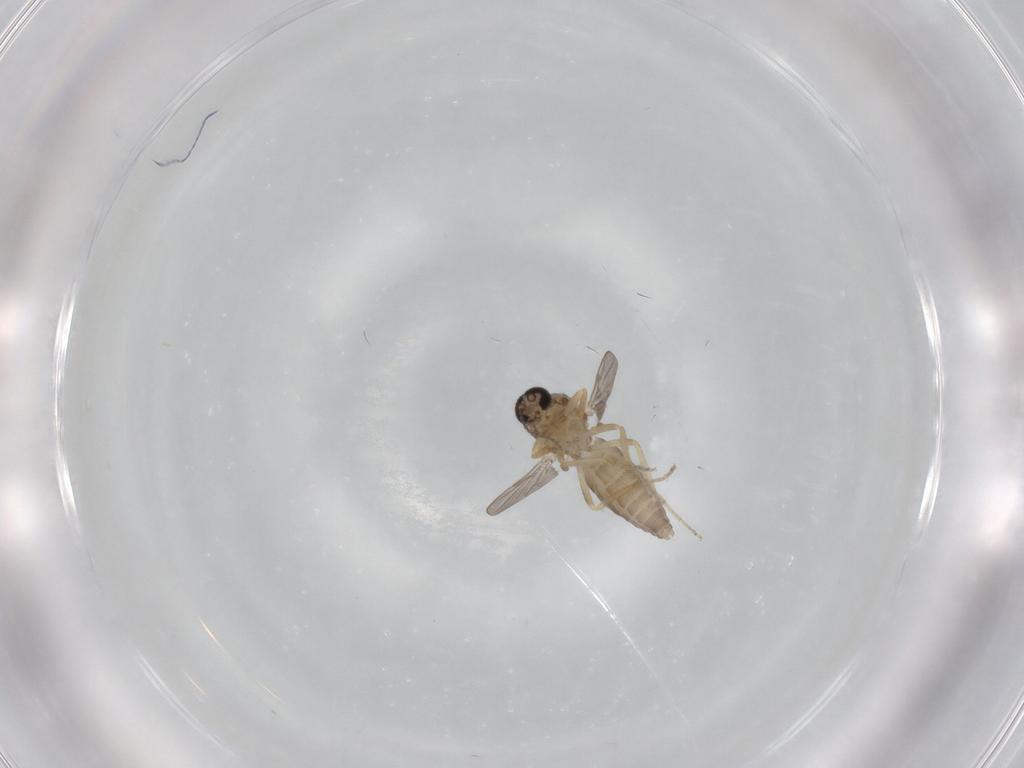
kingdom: Animalia
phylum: Arthropoda
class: Insecta
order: Diptera
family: Ceratopogonidae
